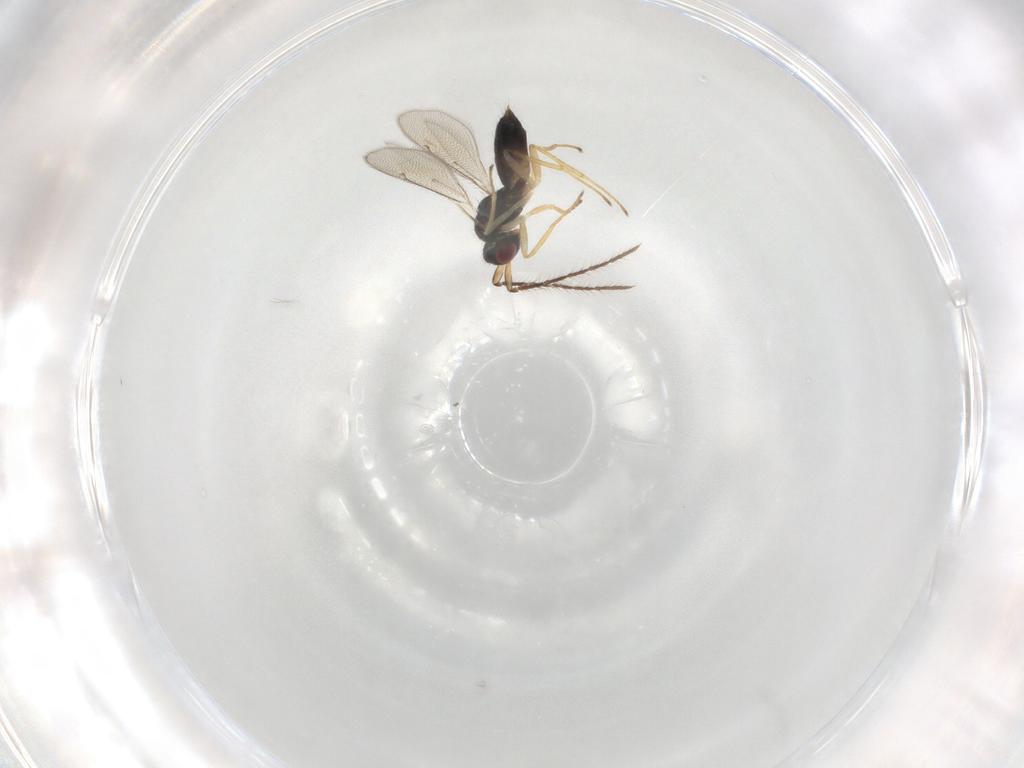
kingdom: Animalia
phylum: Arthropoda
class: Insecta
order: Hymenoptera
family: Eulophidae
